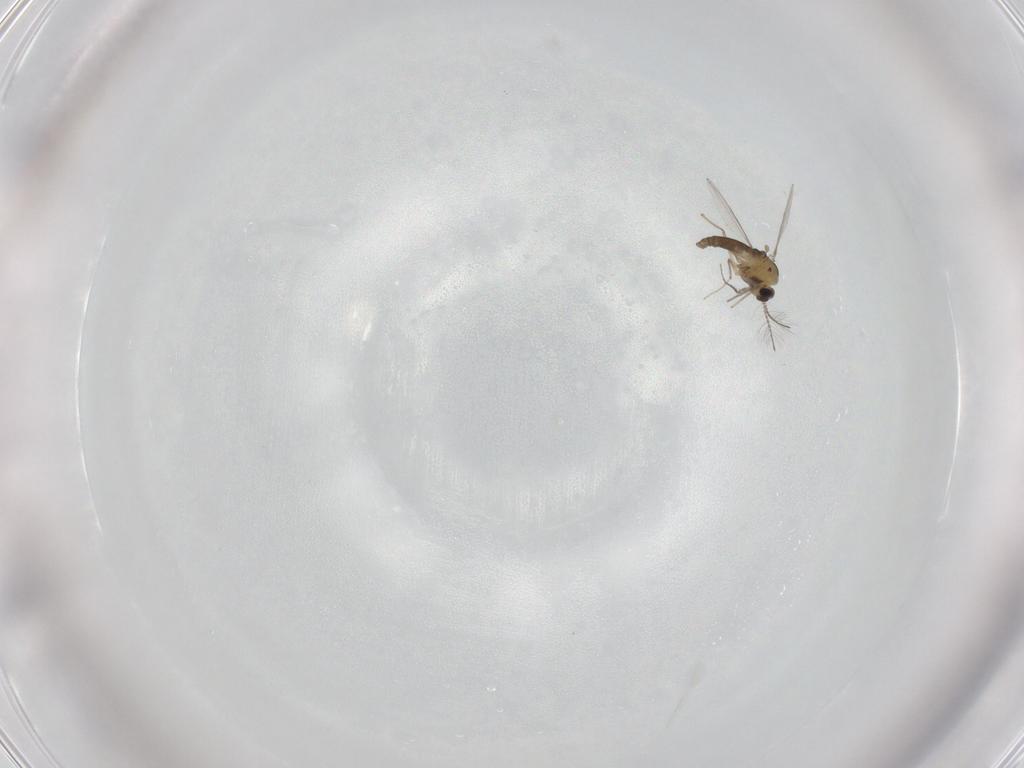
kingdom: Animalia
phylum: Arthropoda
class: Insecta
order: Diptera
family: Chironomidae
